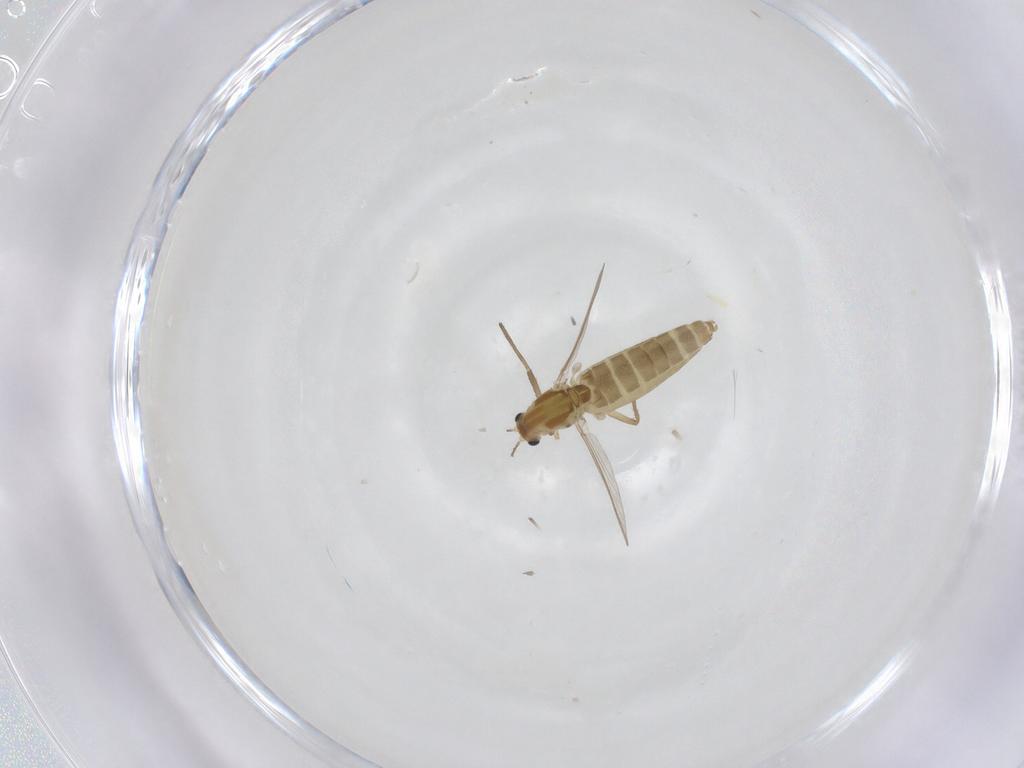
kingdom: Animalia
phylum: Arthropoda
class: Insecta
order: Diptera
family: Chironomidae
